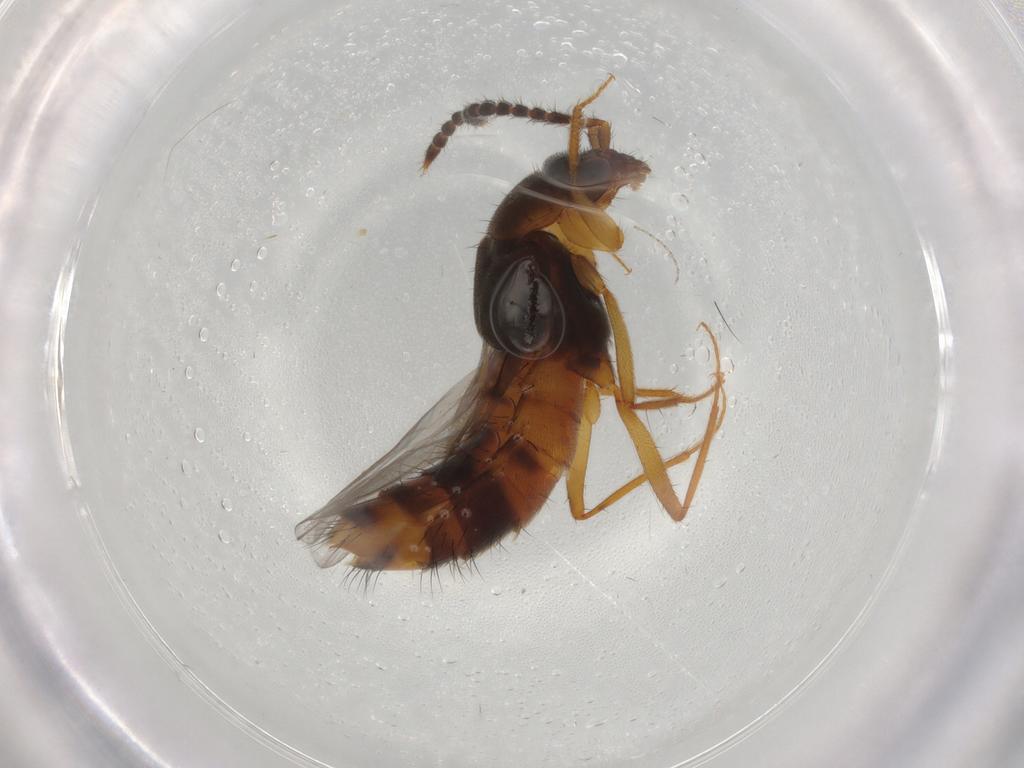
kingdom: Animalia
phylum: Arthropoda
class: Insecta
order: Coleoptera
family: Staphylinidae
